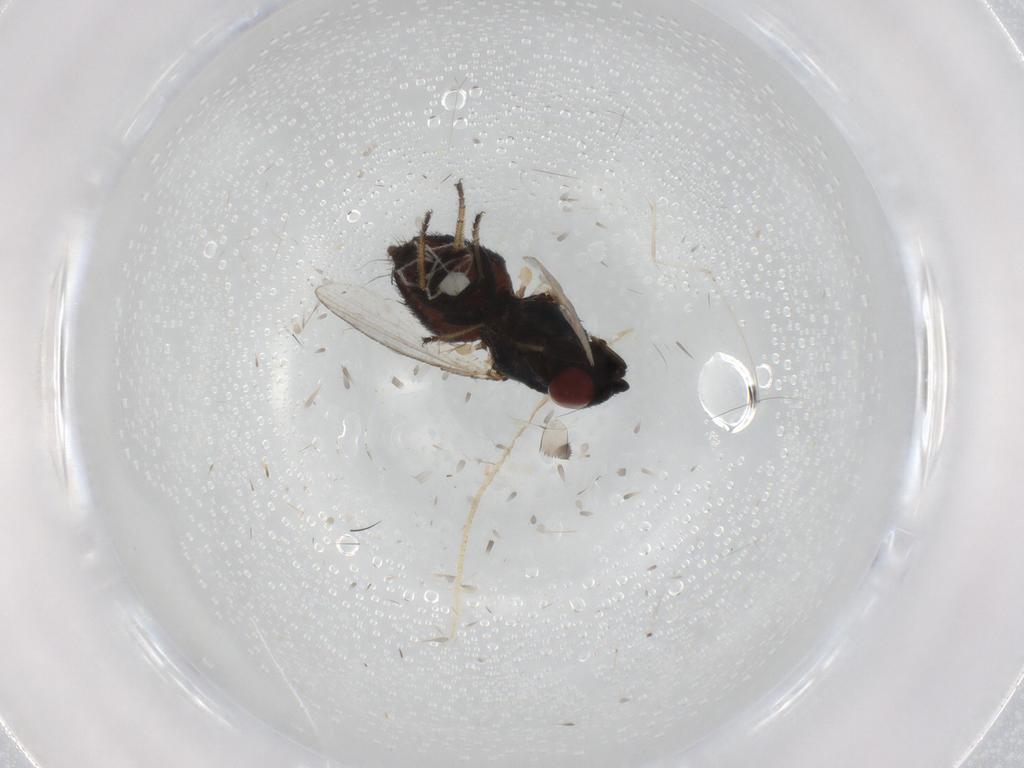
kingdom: Animalia
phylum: Arthropoda
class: Insecta
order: Diptera
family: Milichiidae
